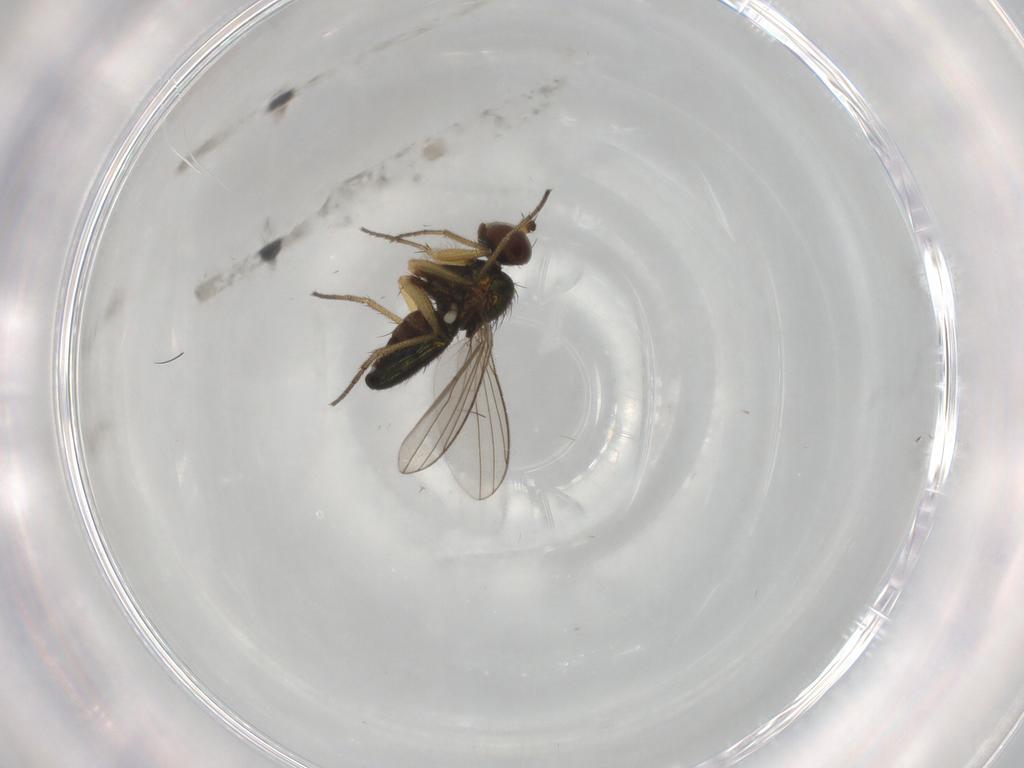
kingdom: Animalia
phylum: Arthropoda
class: Insecta
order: Diptera
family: Dolichopodidae
